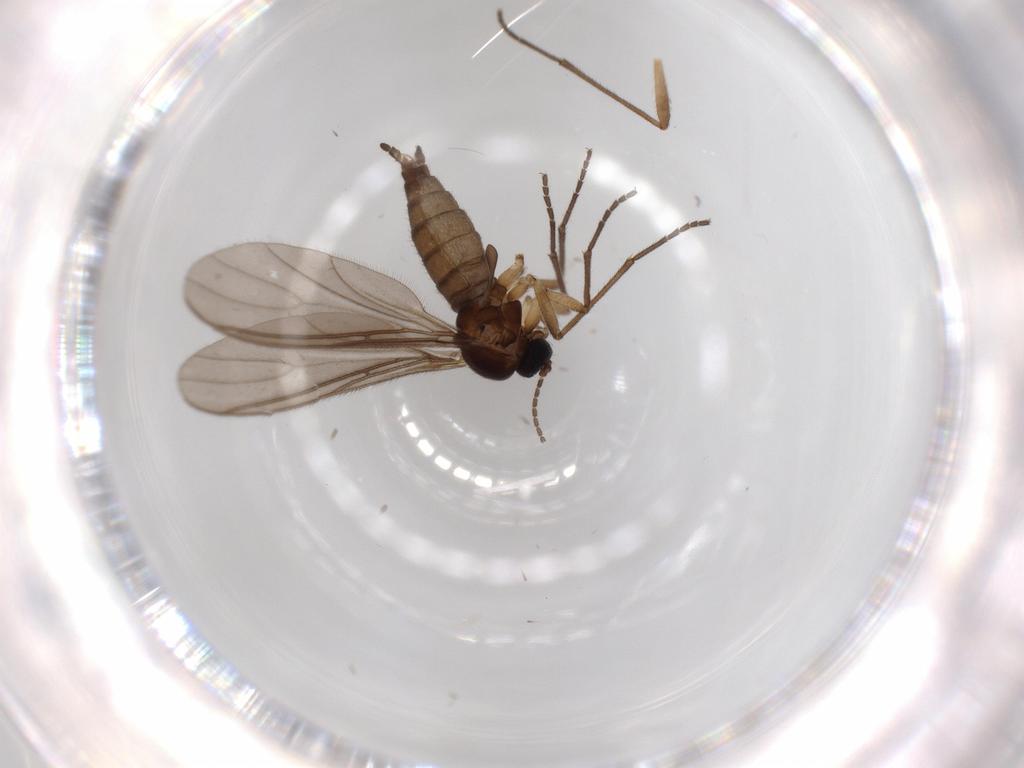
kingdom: Animalia
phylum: Arthropoda
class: Insecta
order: Diptera
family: Sciaridae
